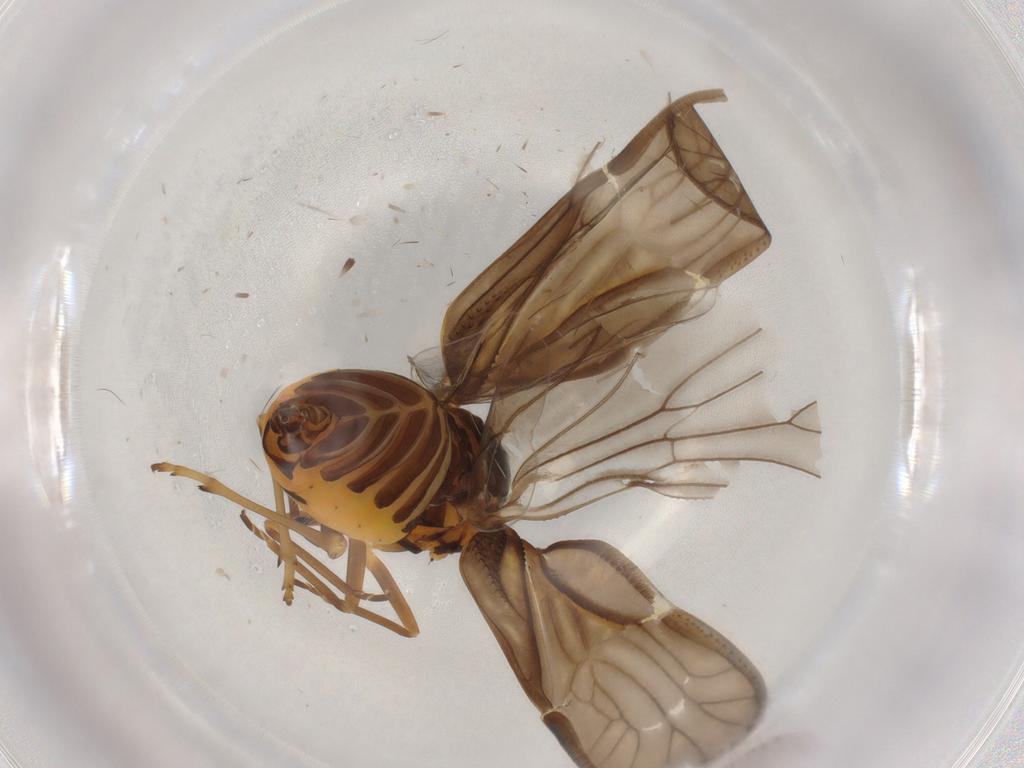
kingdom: Animalia
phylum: Arthropoda
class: Insecta
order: Hemiptera
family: Meenoplidae
